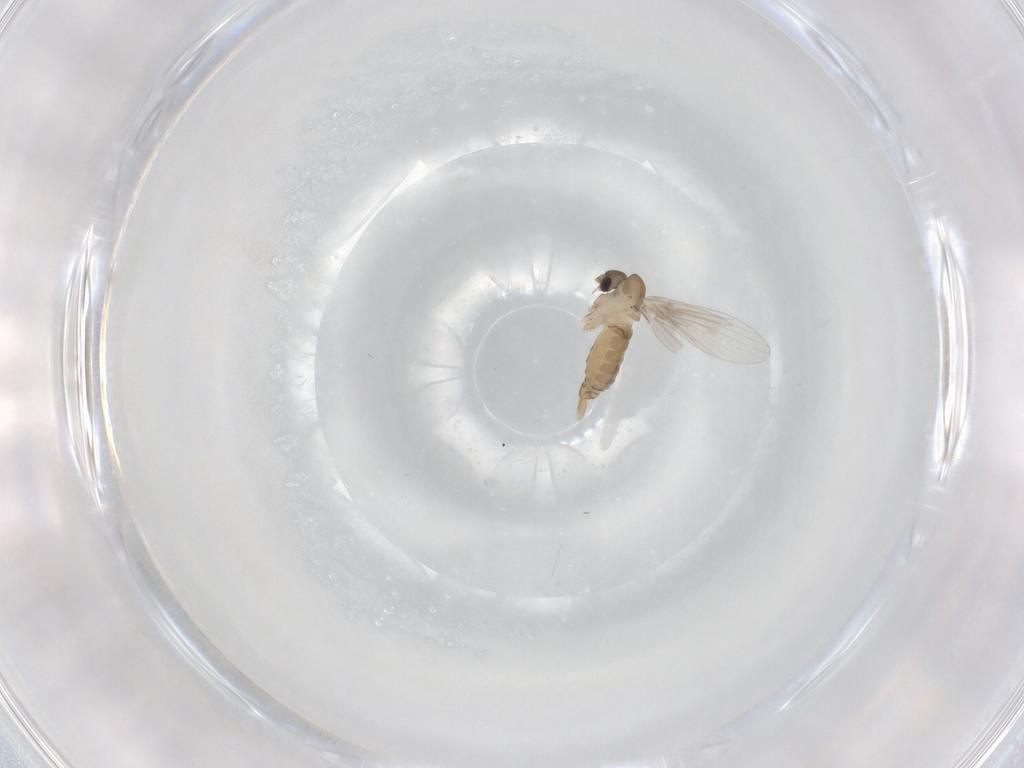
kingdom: Animalia
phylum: Arthropoda
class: Insecta
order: Diptera
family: Psychodidae
